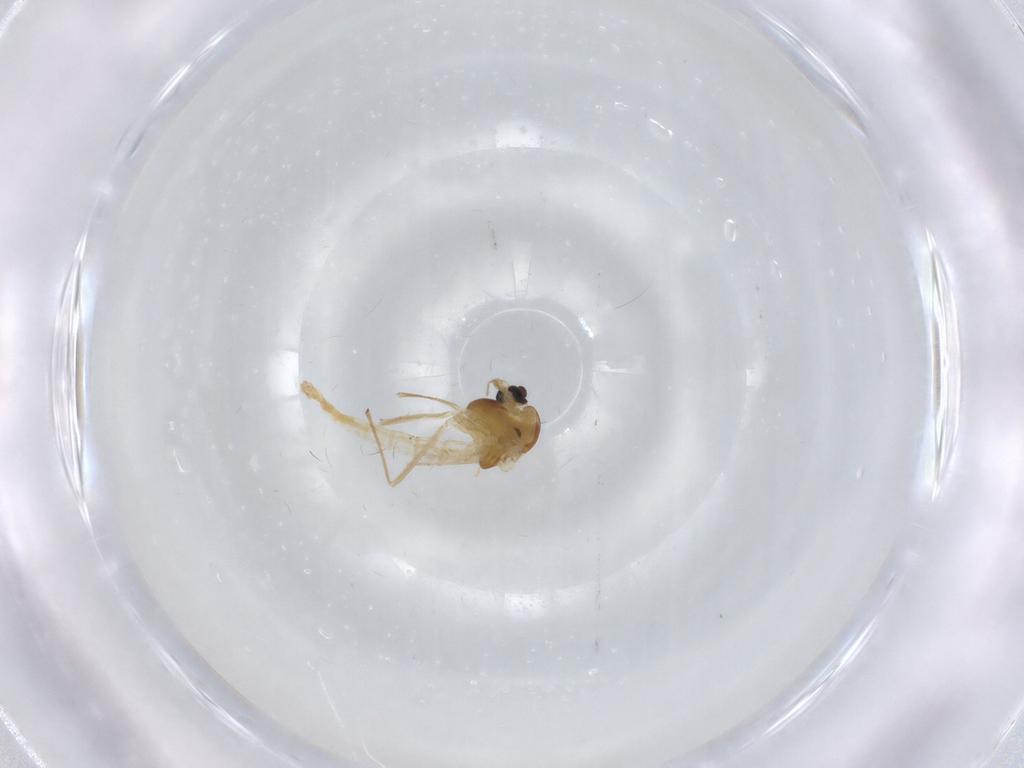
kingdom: Animalia
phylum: Arthropoda
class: Insecta
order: Diptera
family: Chironomidae
